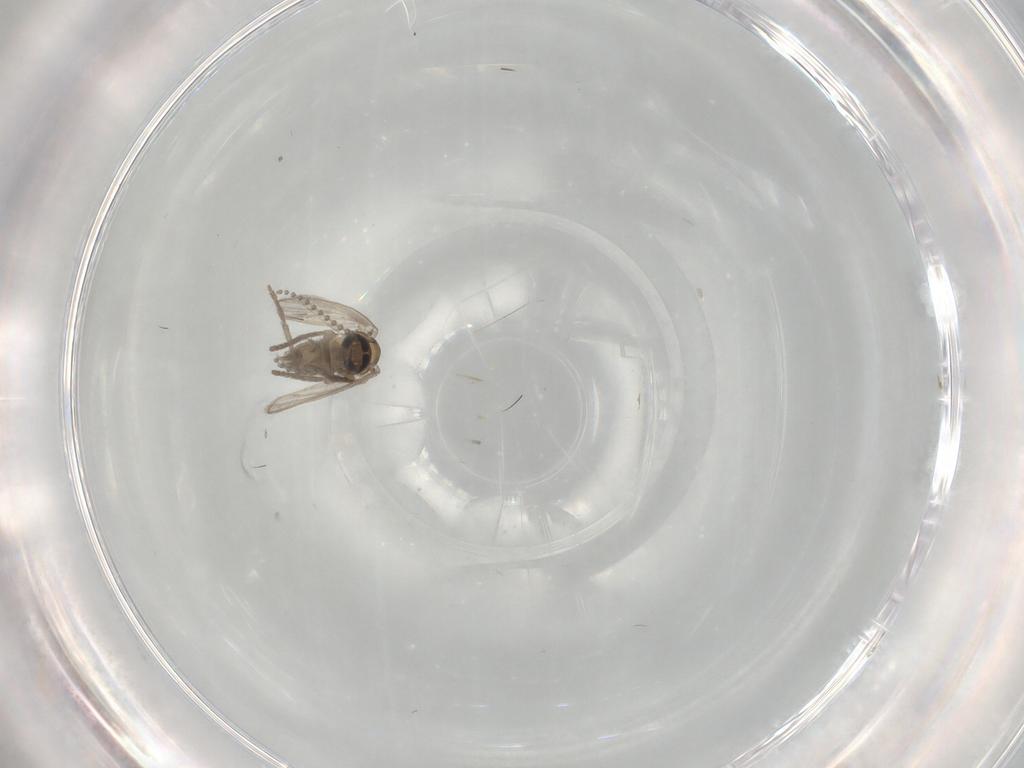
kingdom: Animalia
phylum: Arthropoda
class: Insecta
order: Diptera
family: Psychodidae
